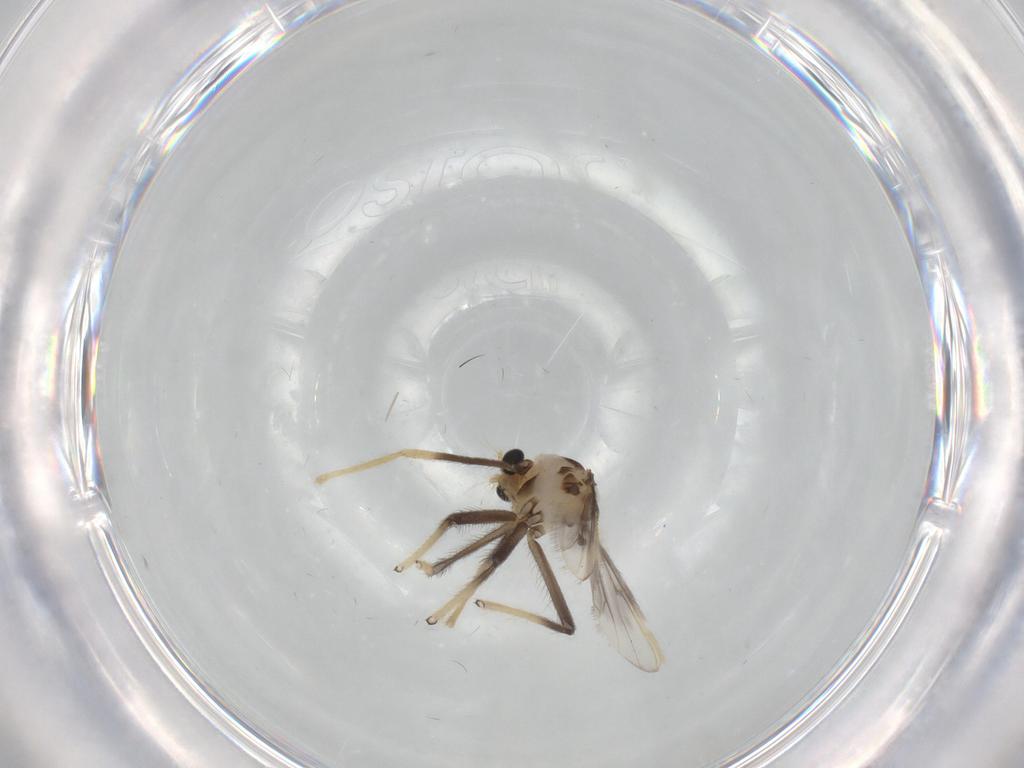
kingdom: Animalia
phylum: Arthropoda
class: Insecta
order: Diptera
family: Chironomidae
